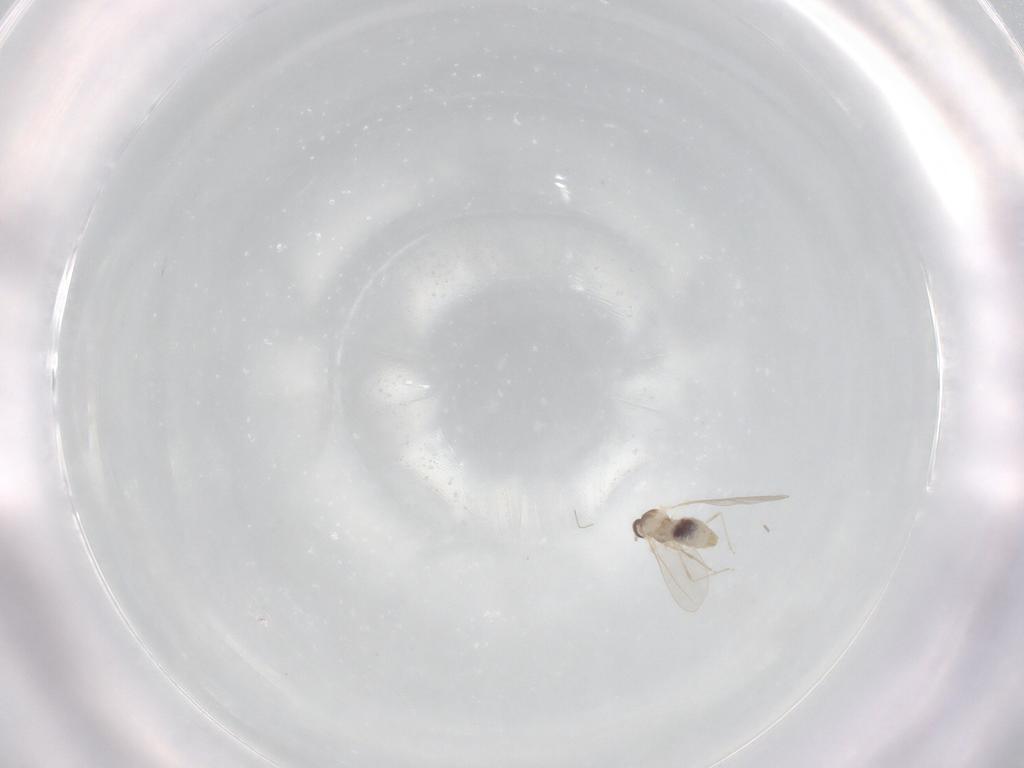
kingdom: Animalia
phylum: Arthropoda
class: Insecta
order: Diptera
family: Cecidomyiidae
